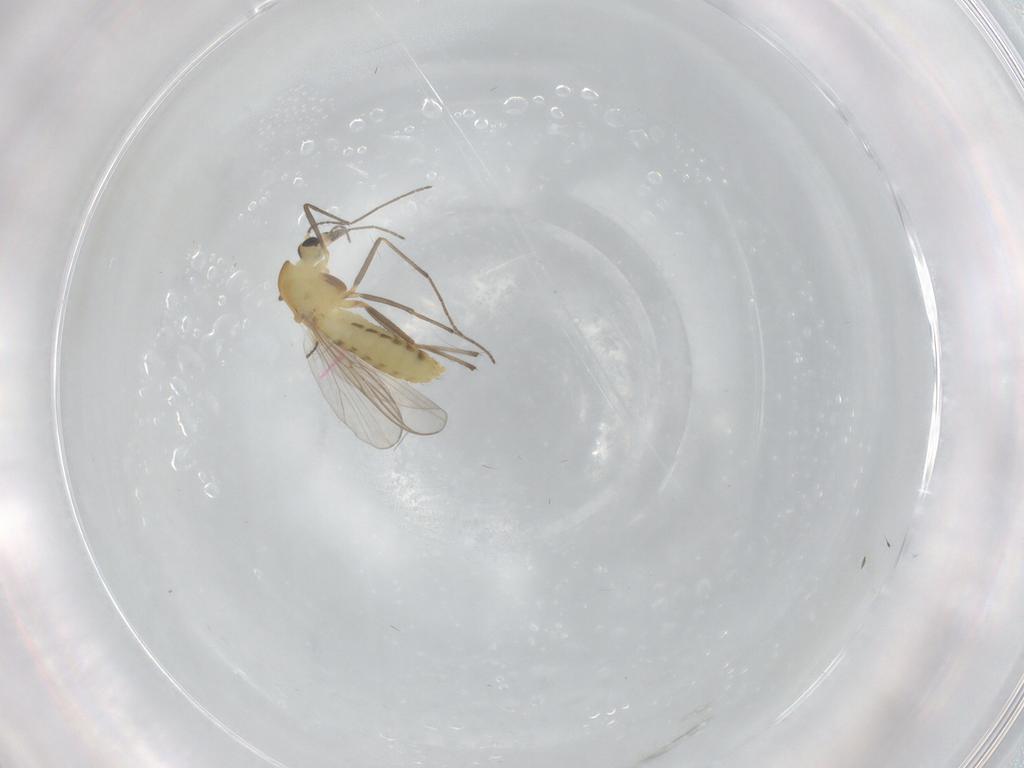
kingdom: Animalia
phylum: Arthropoda
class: Insecta
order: Diptera
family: Chironomidae
